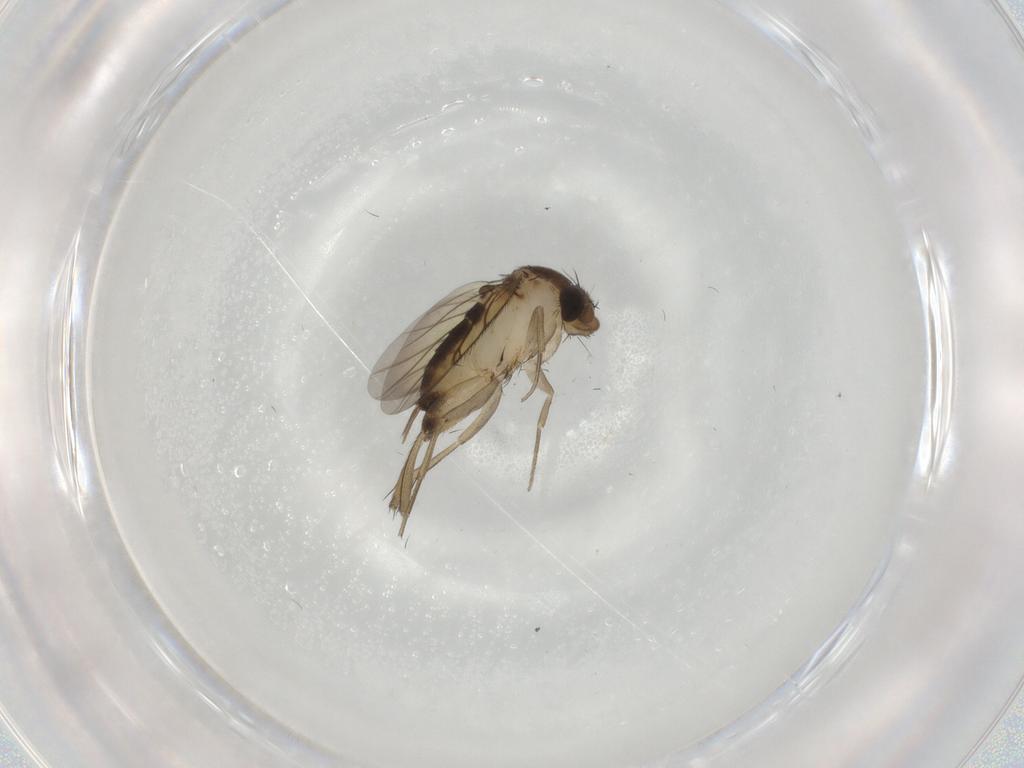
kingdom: Animalia
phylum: Arthropoda
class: Insecta
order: Diptera
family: Phoridae
